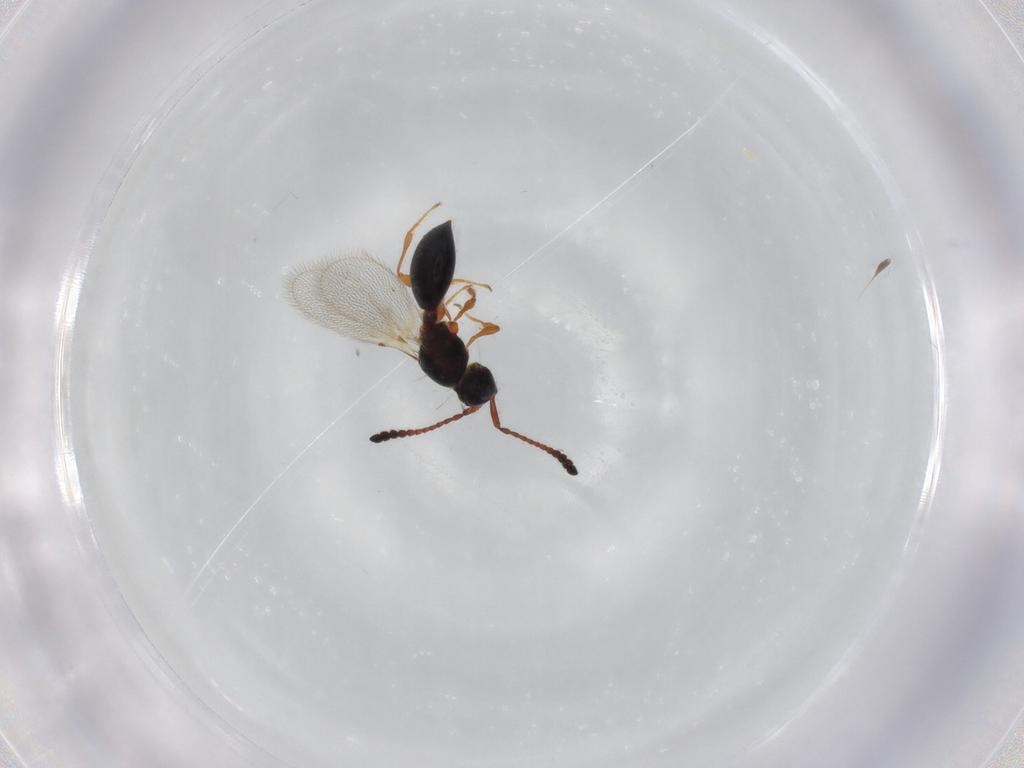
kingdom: Animalia
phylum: Arthropoda
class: Insecta
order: Hymenoptera
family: Diapriidae
